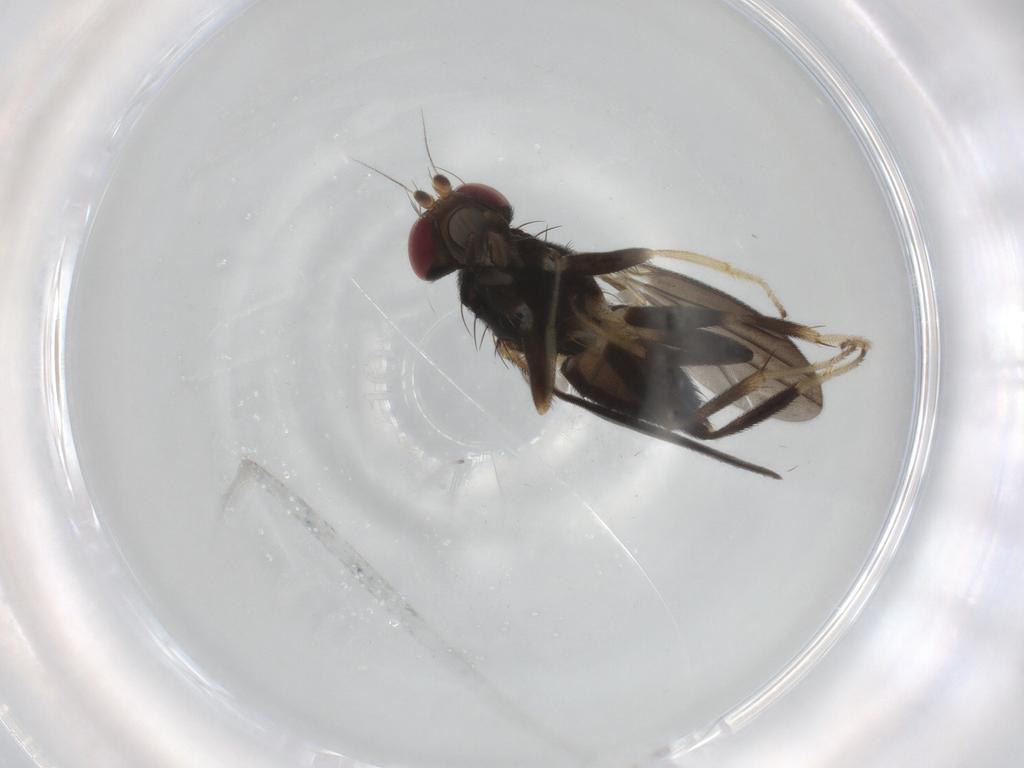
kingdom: Animalia
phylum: Arthropoda
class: Insecta
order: Diptera
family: Clusiidae
